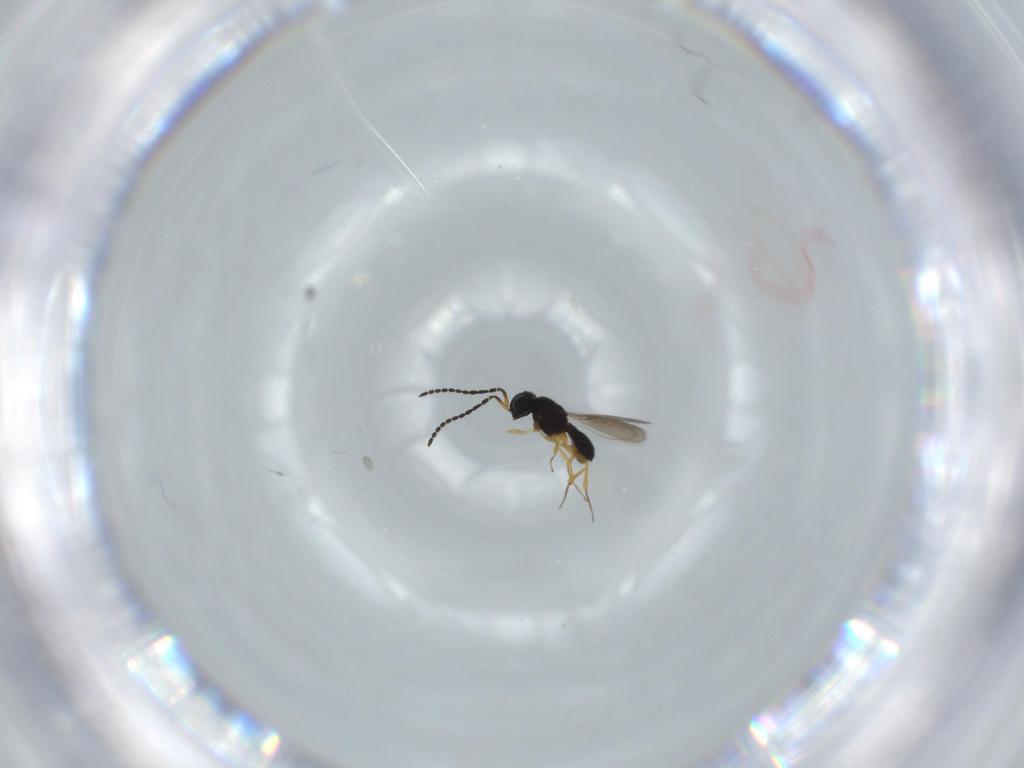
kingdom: Animalia
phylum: Arthropoda
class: Insecta
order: Hymenoptera
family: Scelionidae
